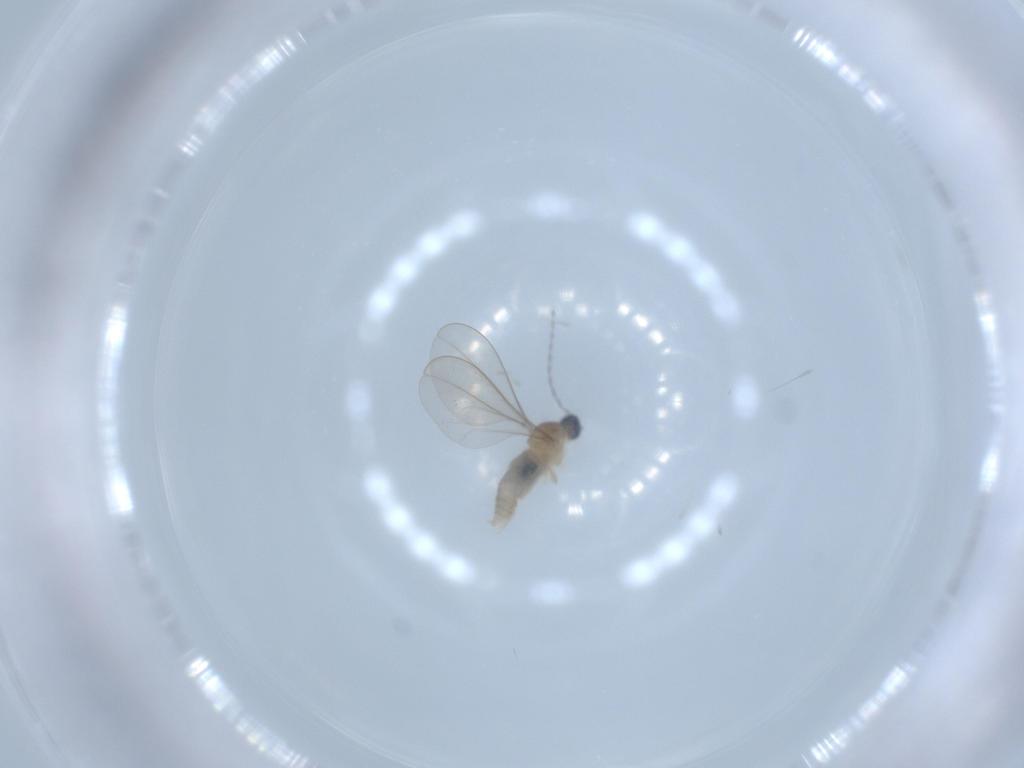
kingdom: Animalia
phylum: Arthropoda
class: Insecta
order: Diptera
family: Cecidomyiidae
